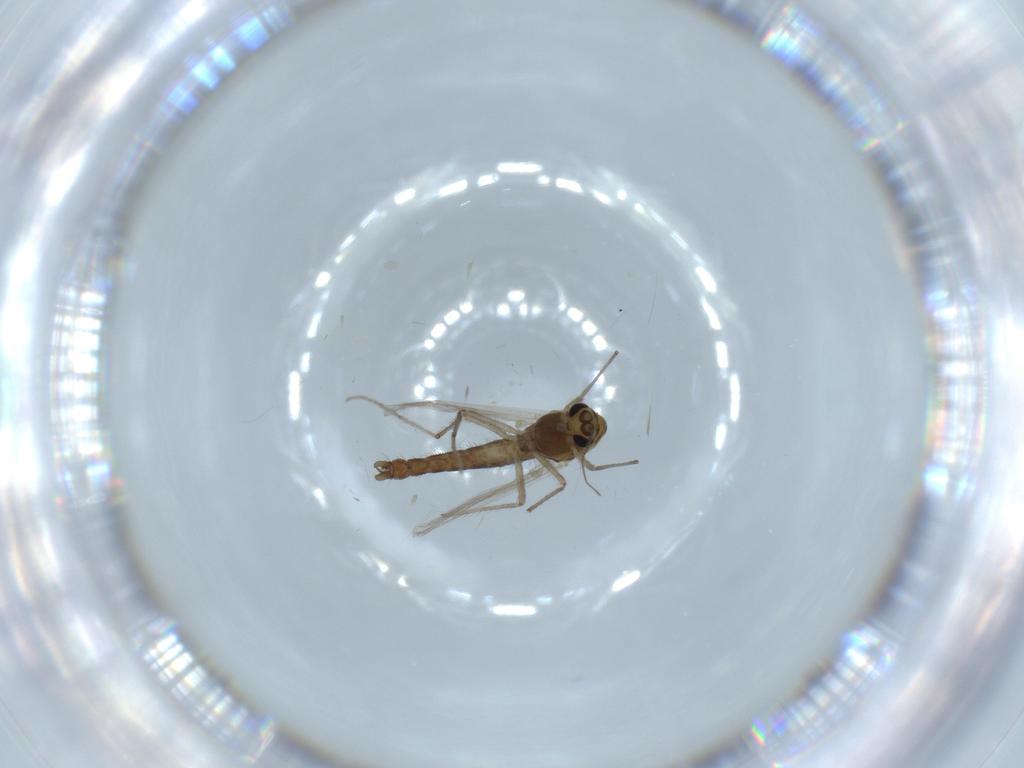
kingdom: Animalia
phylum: Arthropoda
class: Insecta
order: Diptera
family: Chironomidae
